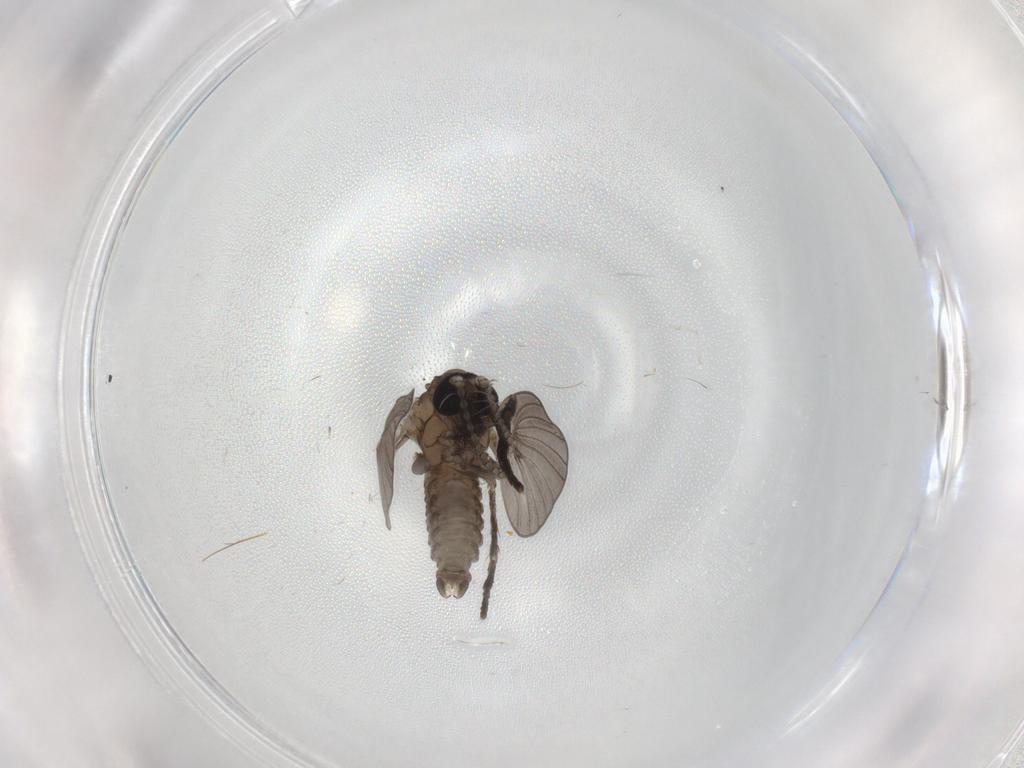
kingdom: Animalia
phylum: Arthropoda
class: Insecta
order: Diptera
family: Psychodidae
